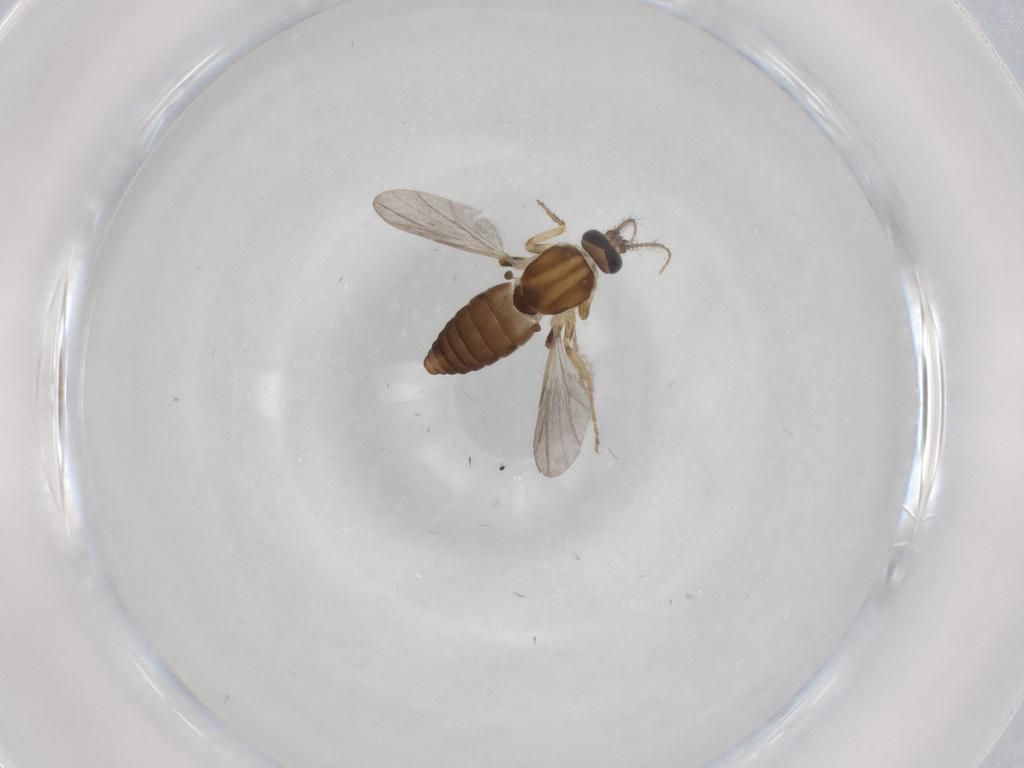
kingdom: Animalia
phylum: Arthropoda
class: Insecta
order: Diptera
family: Ceratopogonidae
